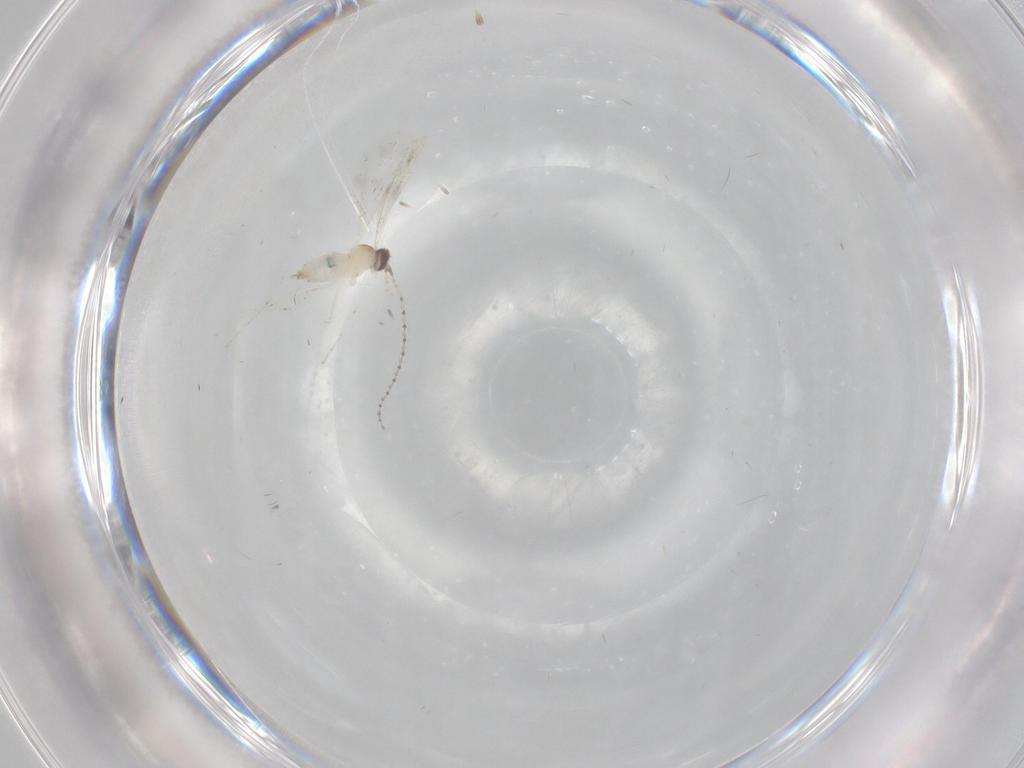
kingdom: Animalia
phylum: Arthropoda
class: Insecta
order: Diptera
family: Cecidomyiidae
